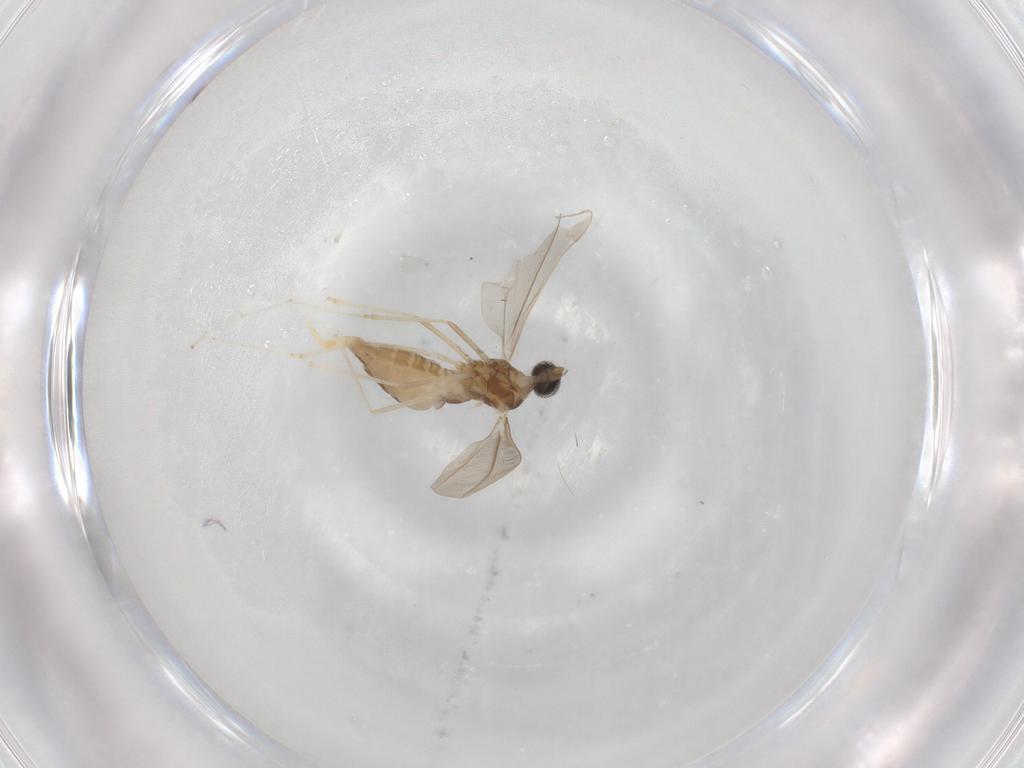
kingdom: Animalia
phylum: Arthropoda
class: Insecta
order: Diptera
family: Cecidomyiidae
